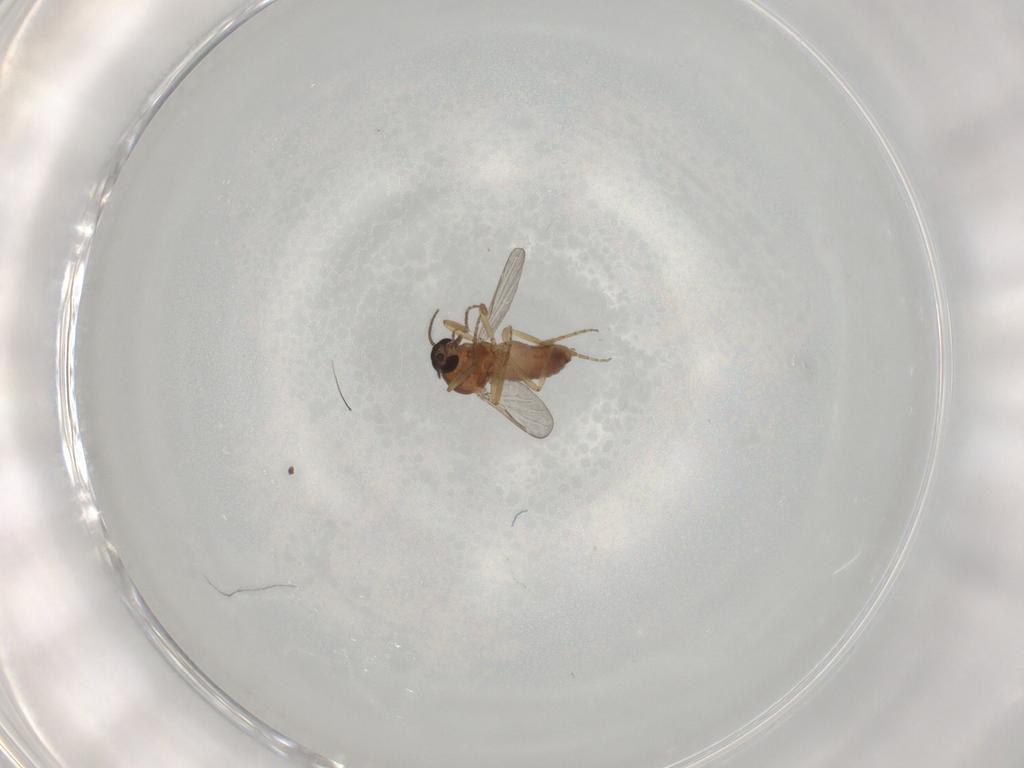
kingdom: Animalia
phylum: Arthropoda
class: Insecta
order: Diptera
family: Ceratopogonidae
